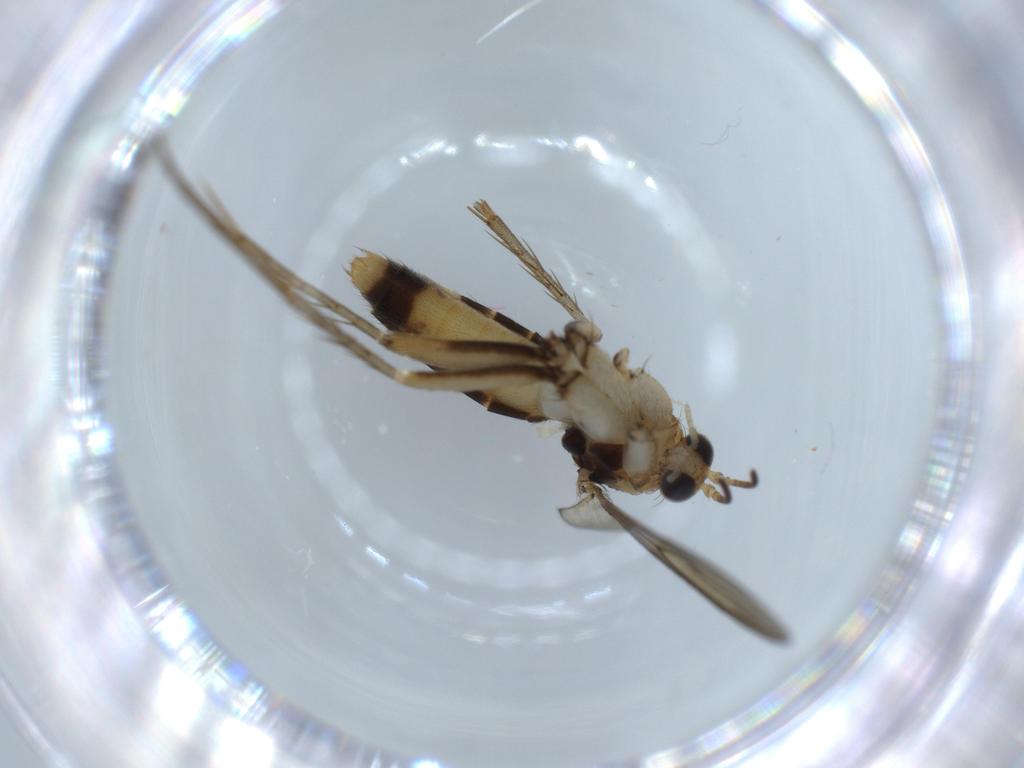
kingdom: Animalia
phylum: Arthropoda
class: Insecta
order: Diptera
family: Mycetophilidae
